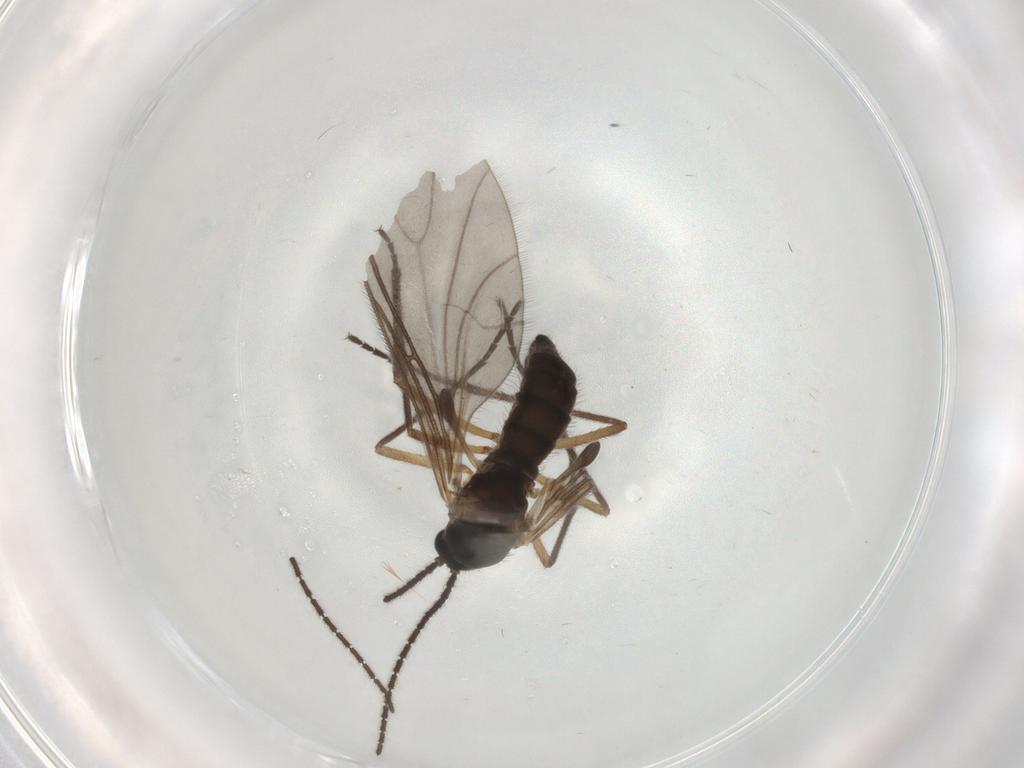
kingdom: Animalia
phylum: Arthropoda
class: Insecta
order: Diptera
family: Sciaridae
